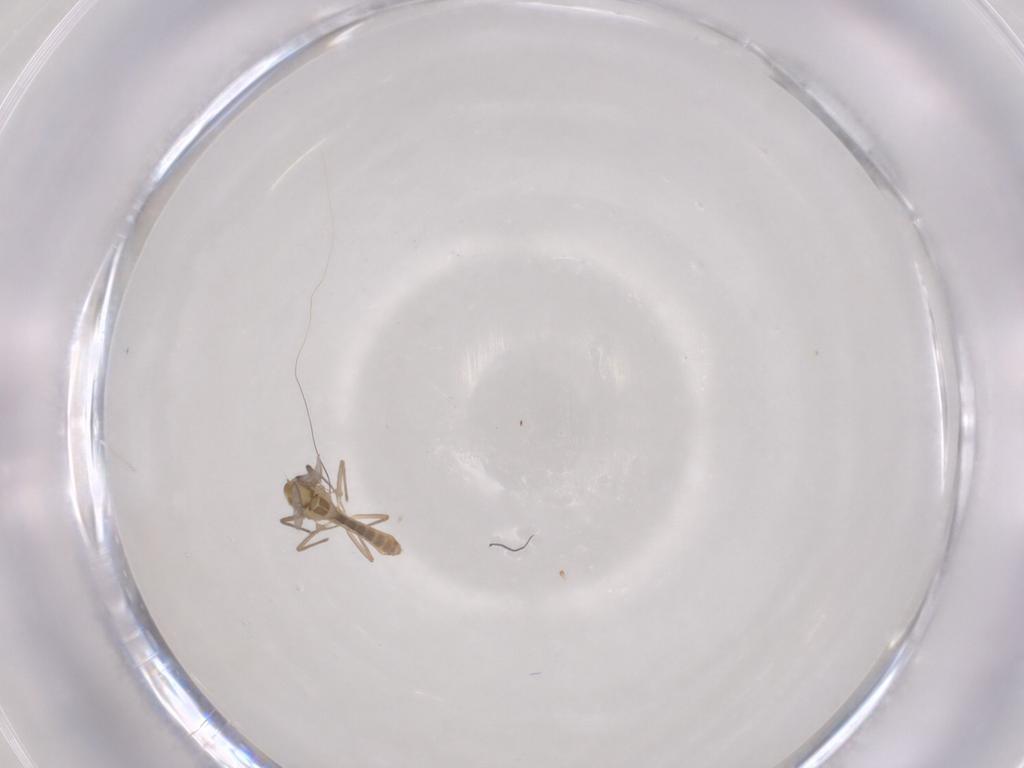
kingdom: Animalia
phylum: Arthropoda
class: Insecta
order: Diptera
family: Chironomidae
